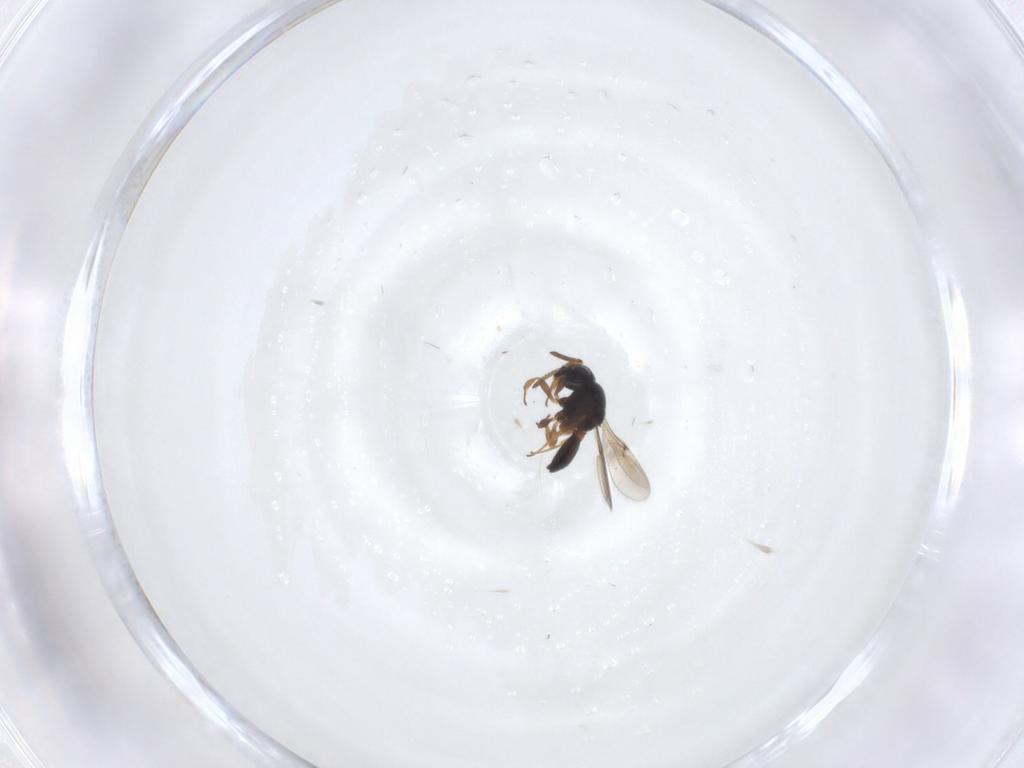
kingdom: Animalia
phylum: Arthropoda
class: Insecta
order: Hymenoptera
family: Scelionidae
